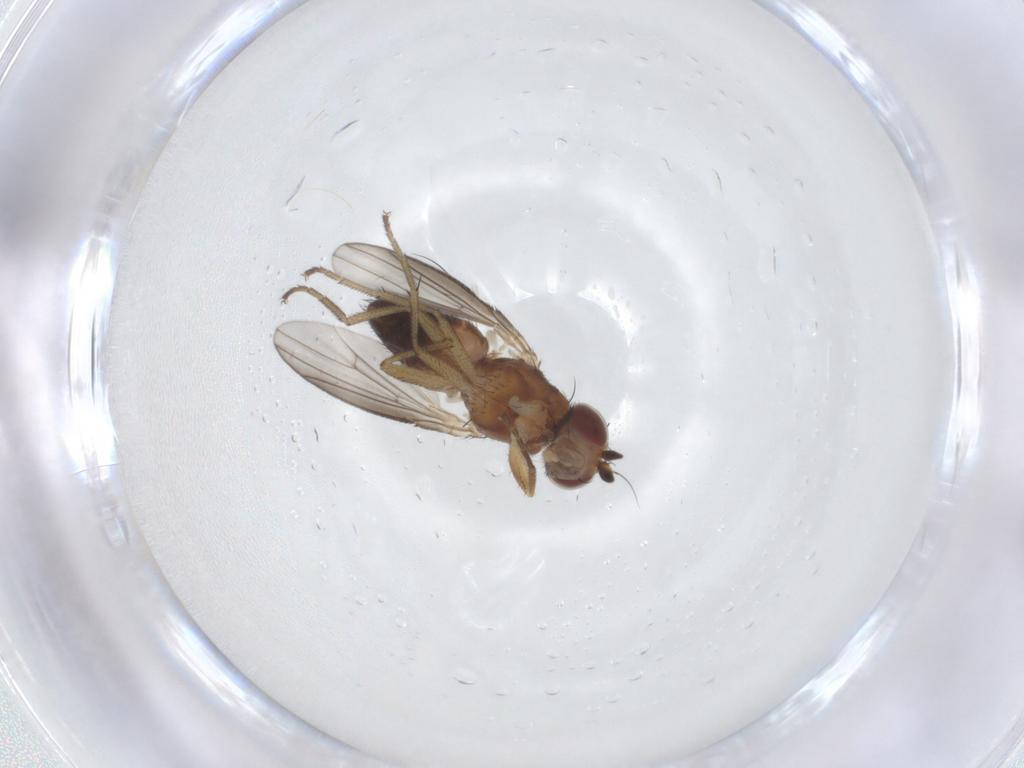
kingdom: Animalia
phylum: Arthropoda
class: Insecta
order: Diptera
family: Heleomyzidae
